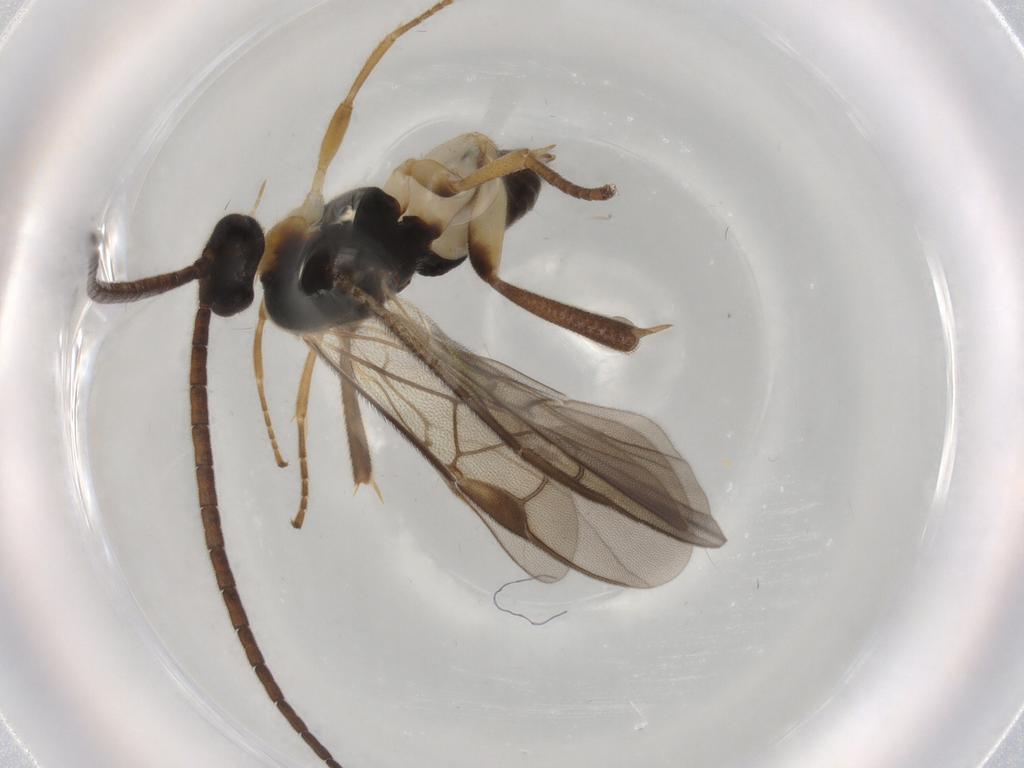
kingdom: Animalia
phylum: Arthropoda
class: Insecta
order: Hymenoptera
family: Braconidae
